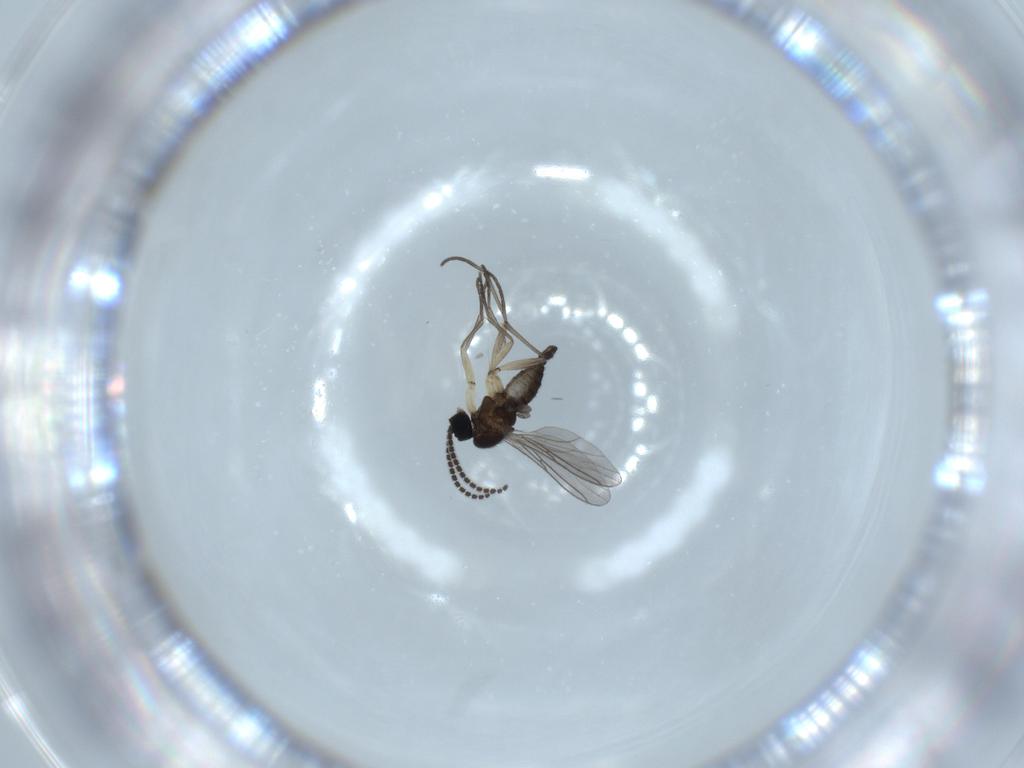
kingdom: Animalia
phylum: Arthropoda
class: Insecta
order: Diptera
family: Sciaridae
